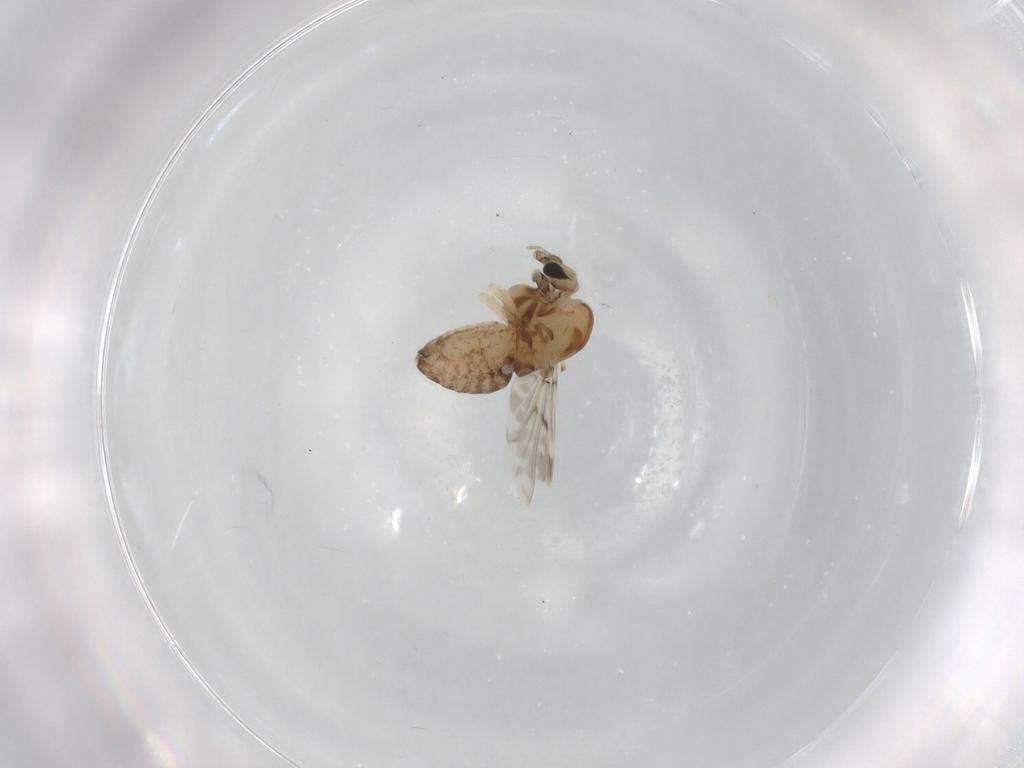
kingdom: Animalia
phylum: Arthropoda
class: Insecta
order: Diptera
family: Chironomidae
